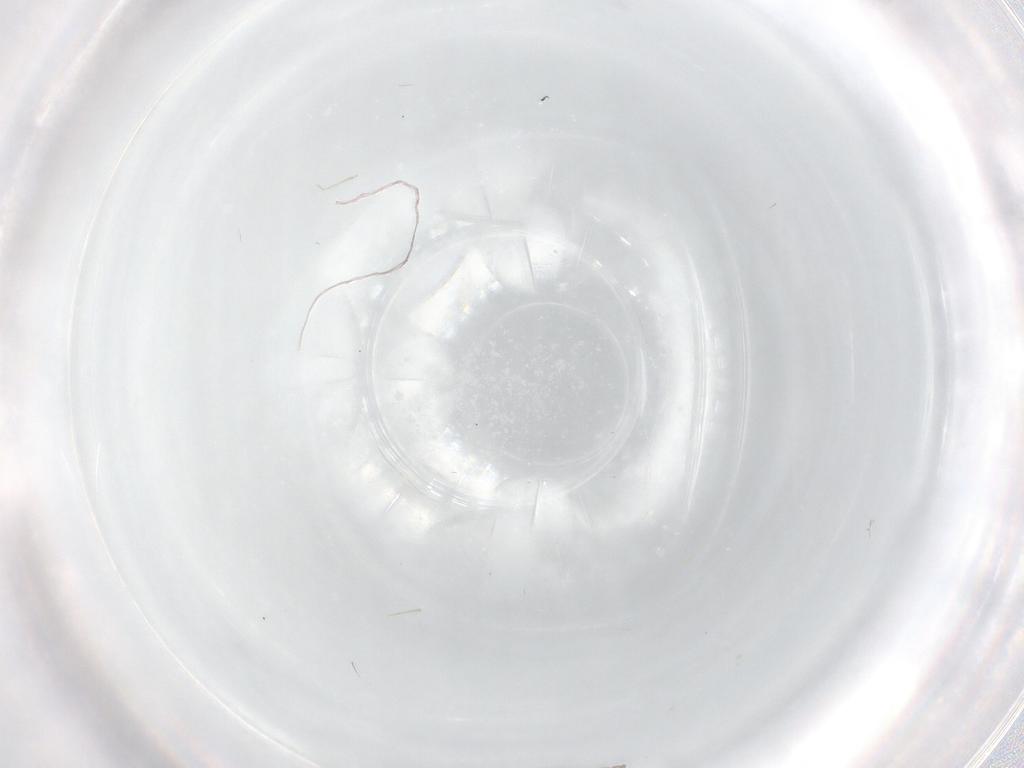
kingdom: Animalia
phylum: Arthropoda
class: Insecta
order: Diptera
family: Cecidomyiidae
